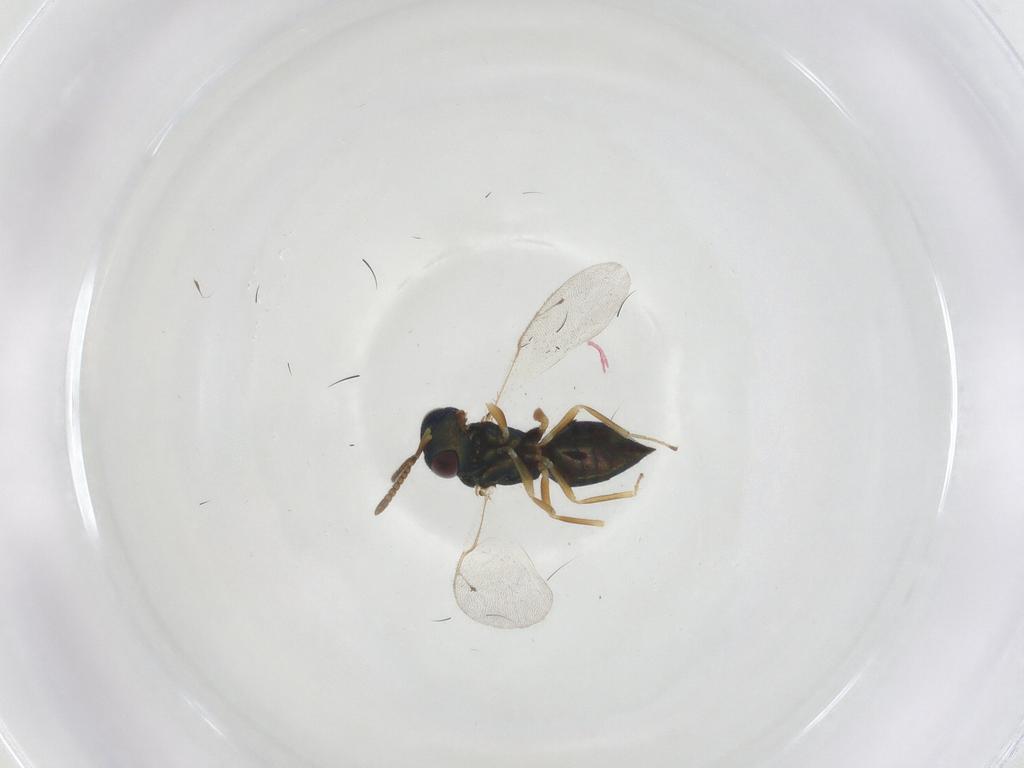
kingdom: Animalia
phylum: Arthropoda
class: Insecta
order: Hymenoptera
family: Pteromalidae
